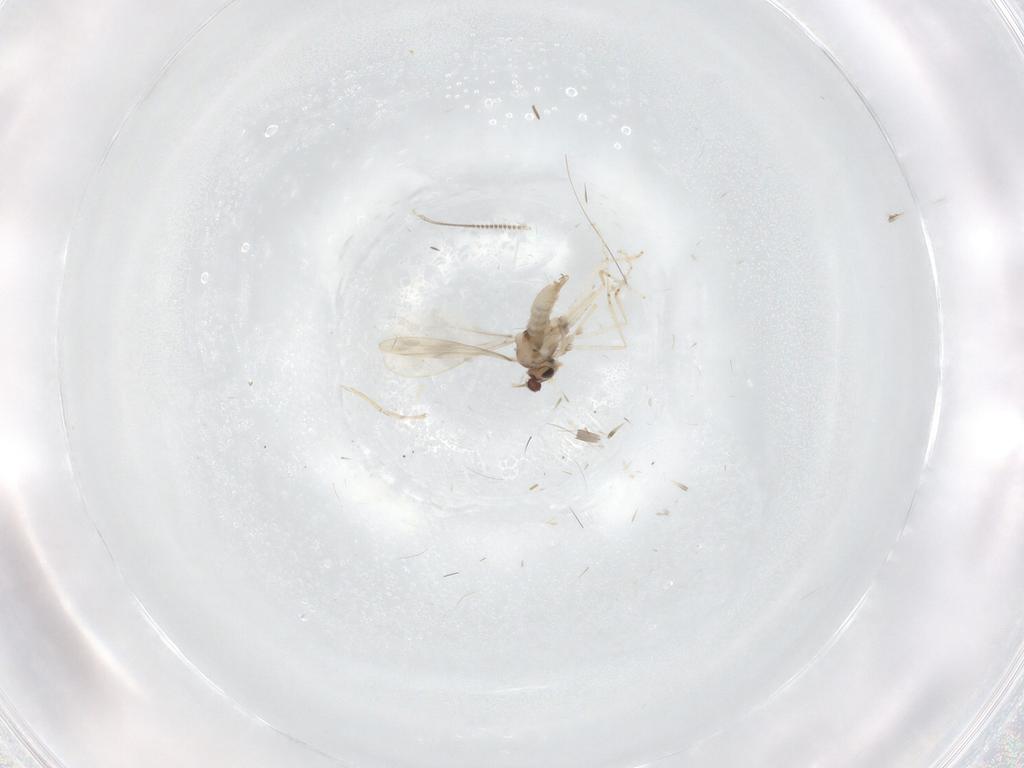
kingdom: Animalia
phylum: Arthropoda
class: Insecta
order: Diptera
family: Cecidomyiidae
